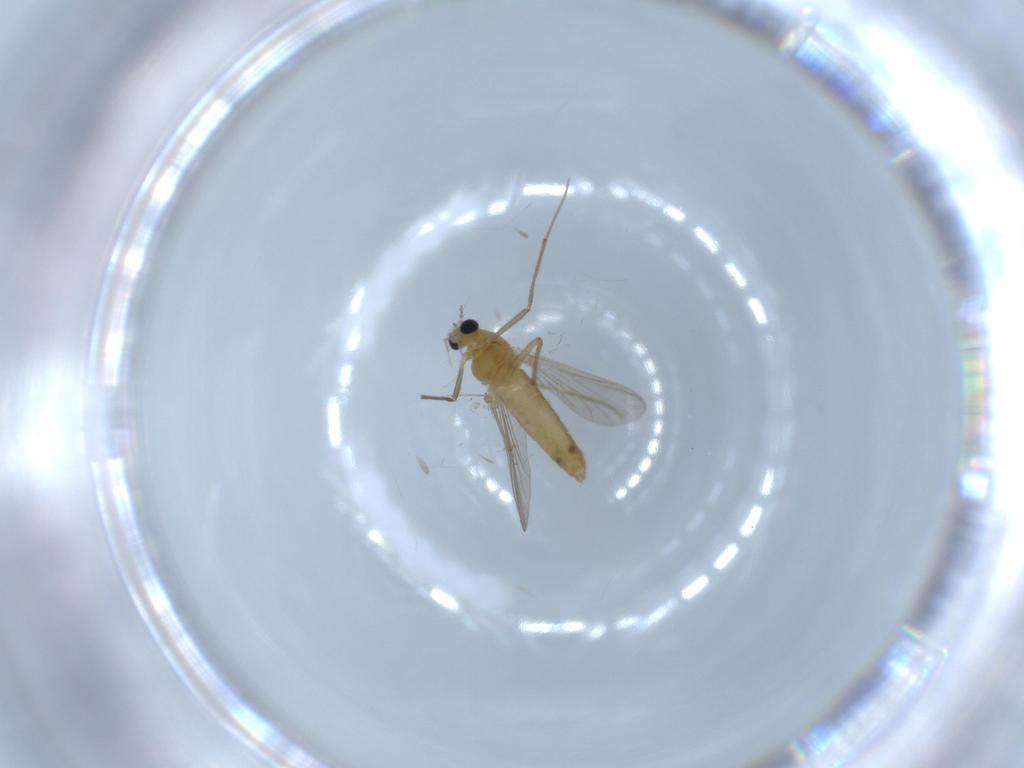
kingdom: Animalia
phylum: Arthropoda
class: Insecta
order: Diptera
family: Chironomidae
